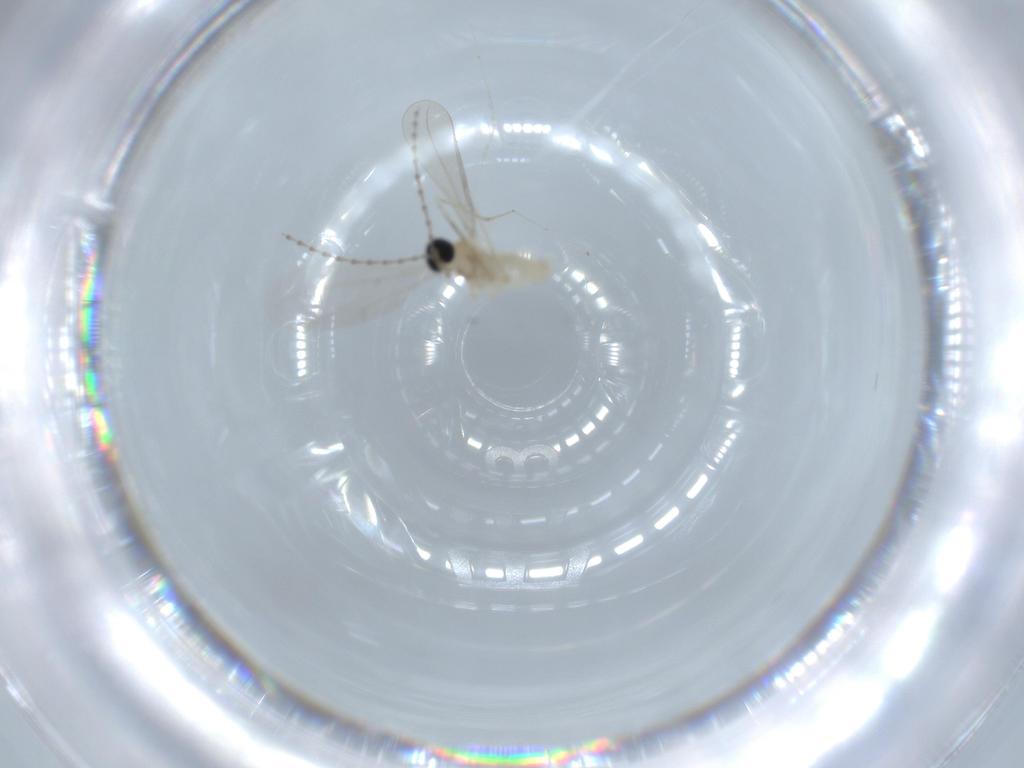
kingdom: Animalia
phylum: Arthropoda
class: Insecta
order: Diptera
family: Cecidomyiidae
